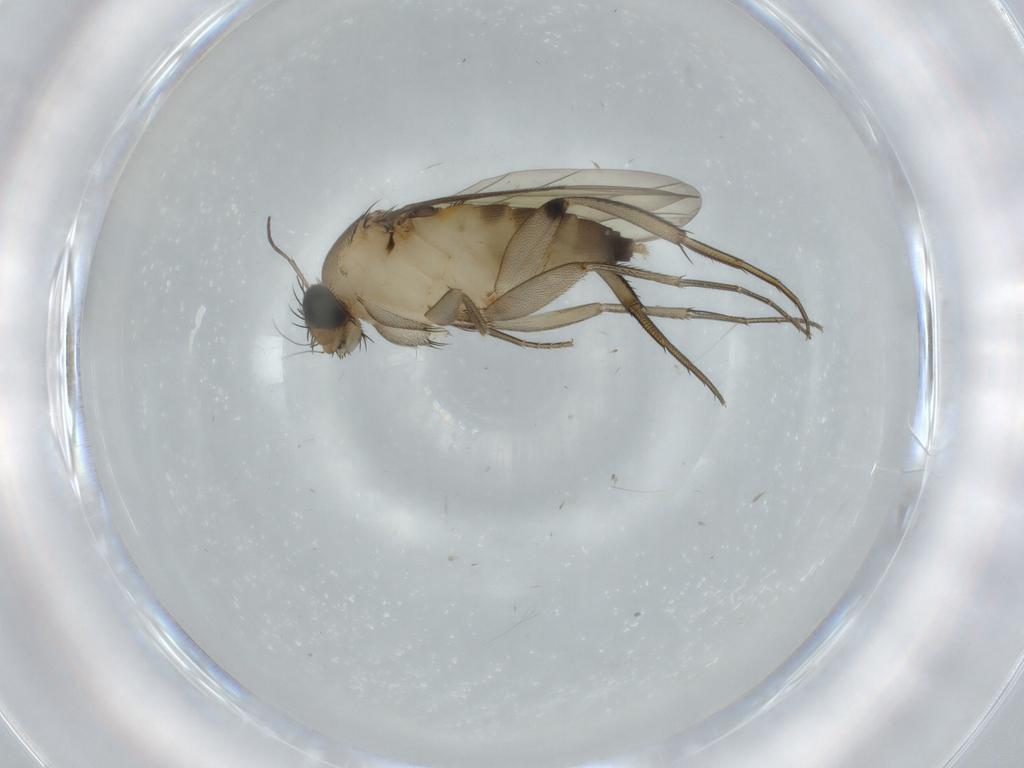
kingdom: Animalia
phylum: Arthropoda
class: Insecta
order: Diptera
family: Phoridae
